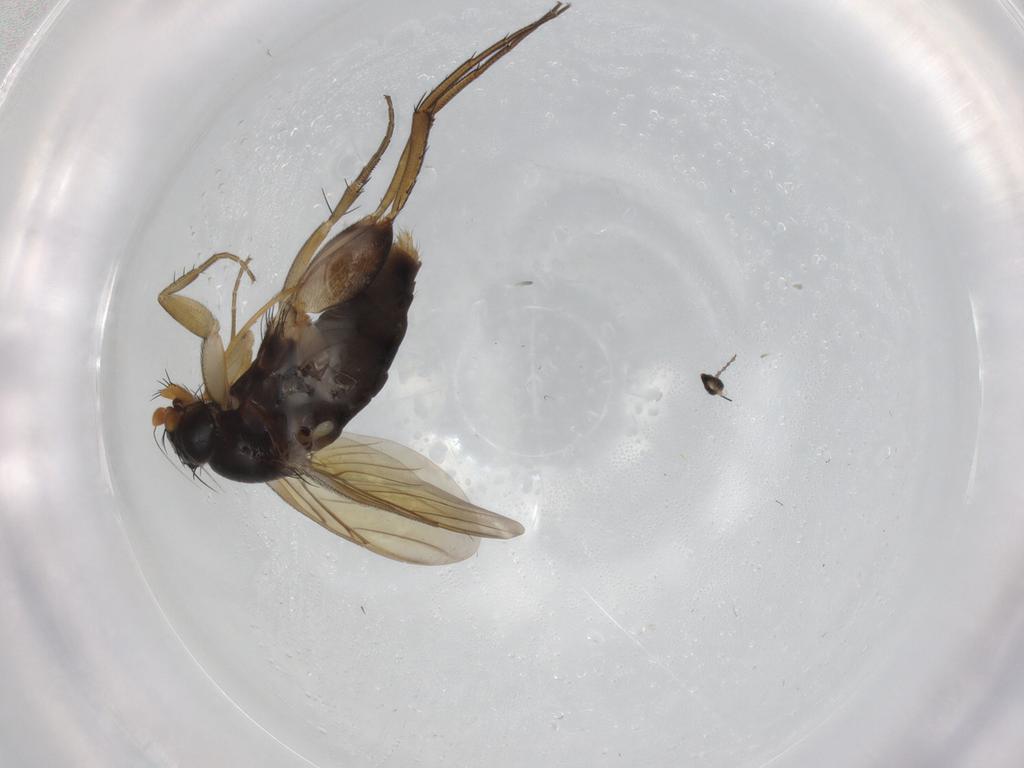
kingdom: Animalia
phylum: Arthropoda
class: Insecta
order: Diptera
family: Phoridae
